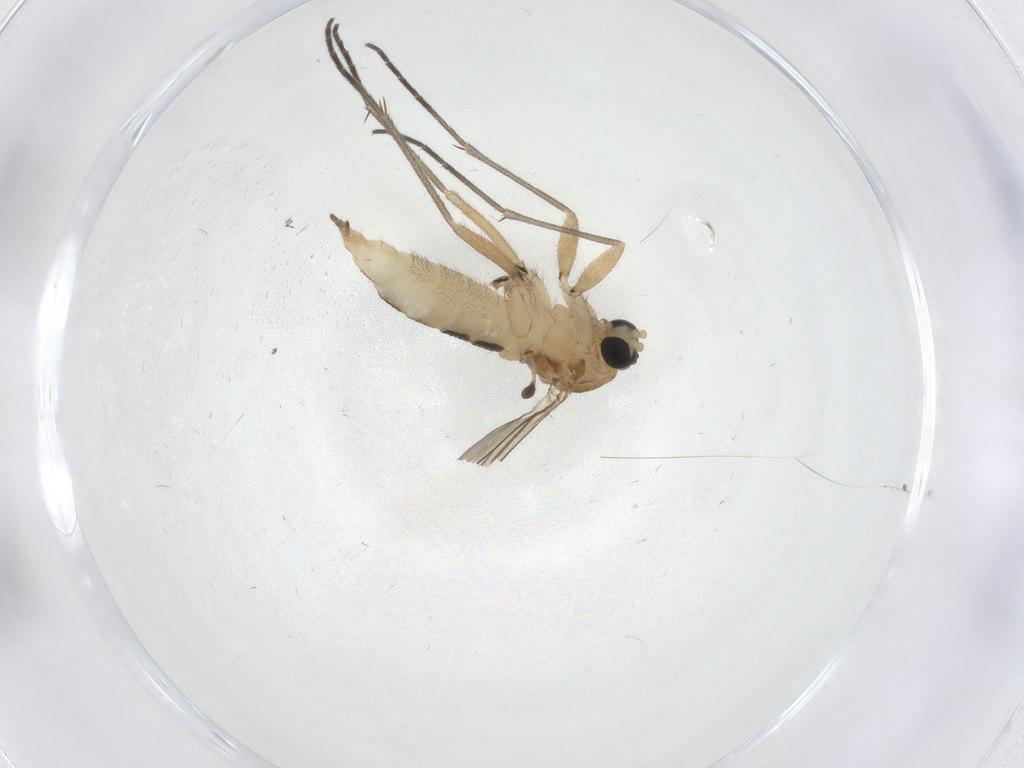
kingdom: Animalia
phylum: Arthropoda
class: Insecta
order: Diptera
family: Sciaridae
